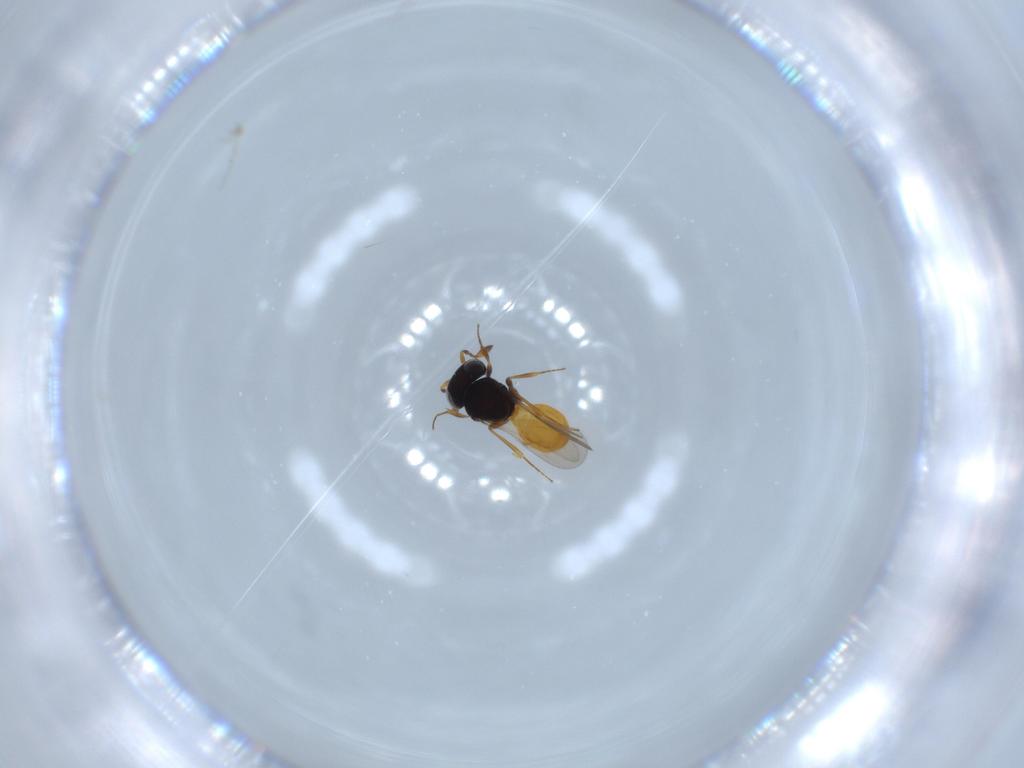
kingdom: Animalia
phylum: Arthropoda
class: Insecta
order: Hymenoptera
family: Scelionidae
